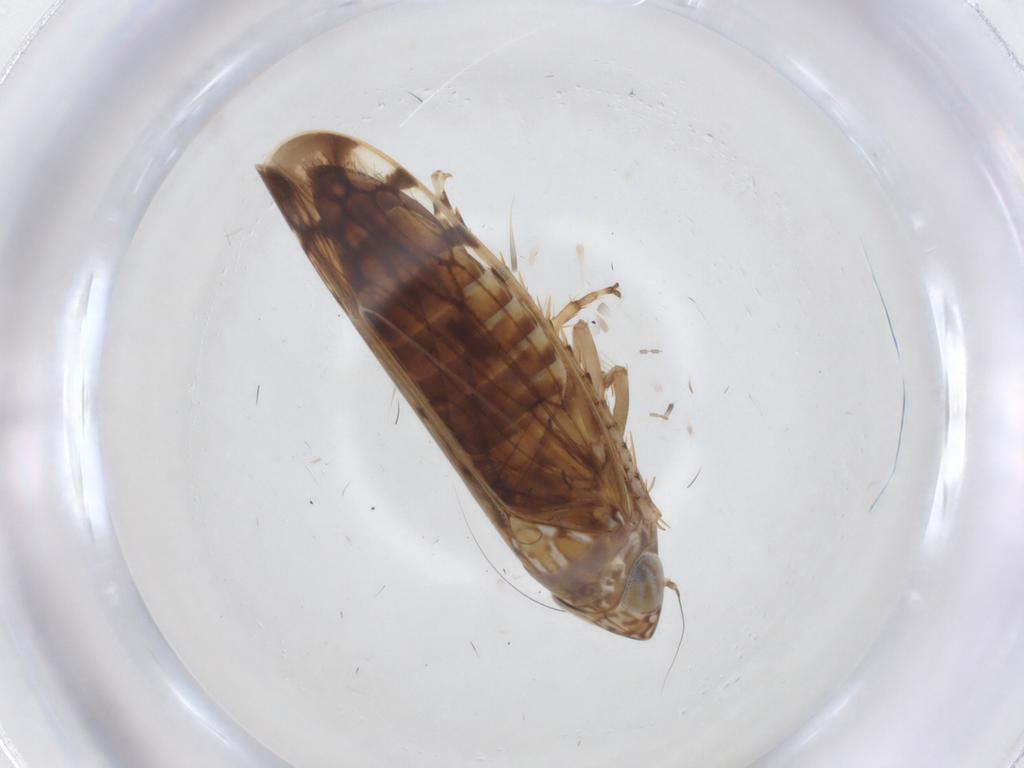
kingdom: Animalia
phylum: Arthropoda
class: Insecta
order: Hemiptera
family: Cicadellidae
